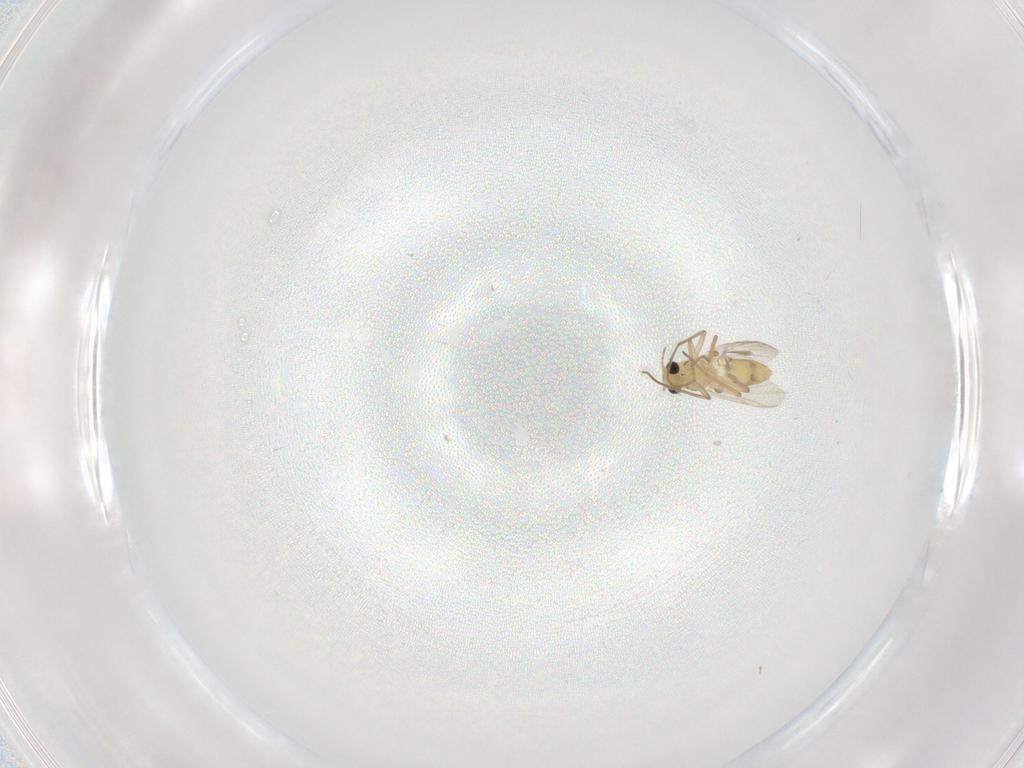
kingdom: Animalia
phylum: Arthropoda
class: Insecta
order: Diptera
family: Chironomidae
